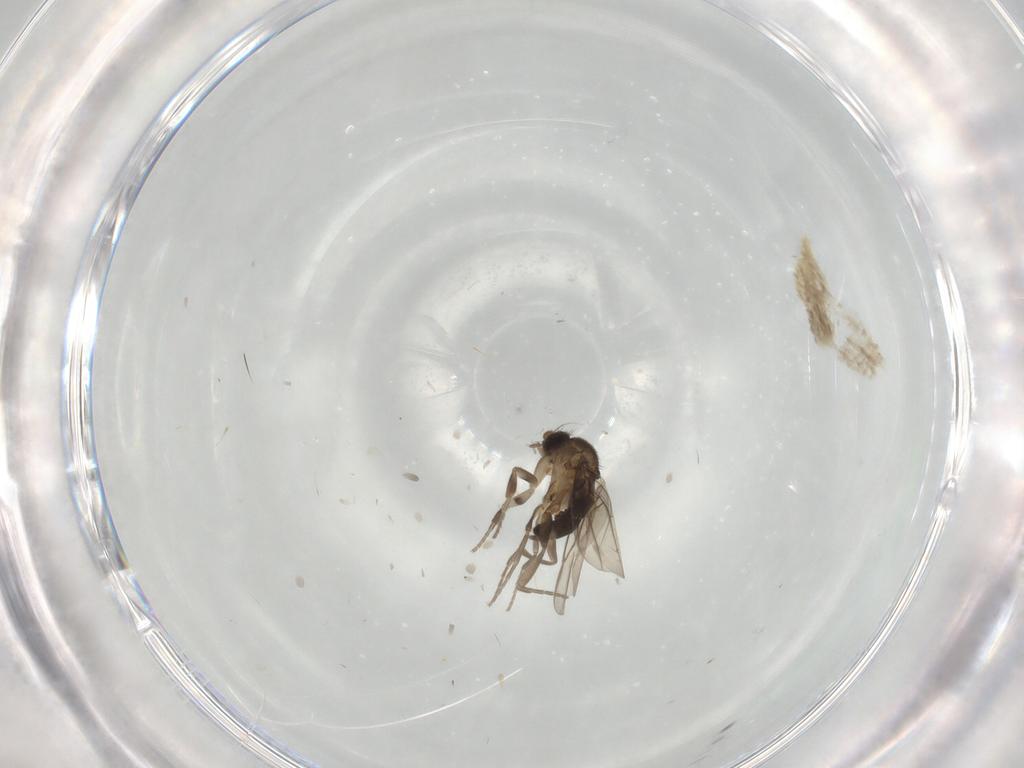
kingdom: Animalia
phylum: Arthropoda
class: Insecta
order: Diptera
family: Phoridae
